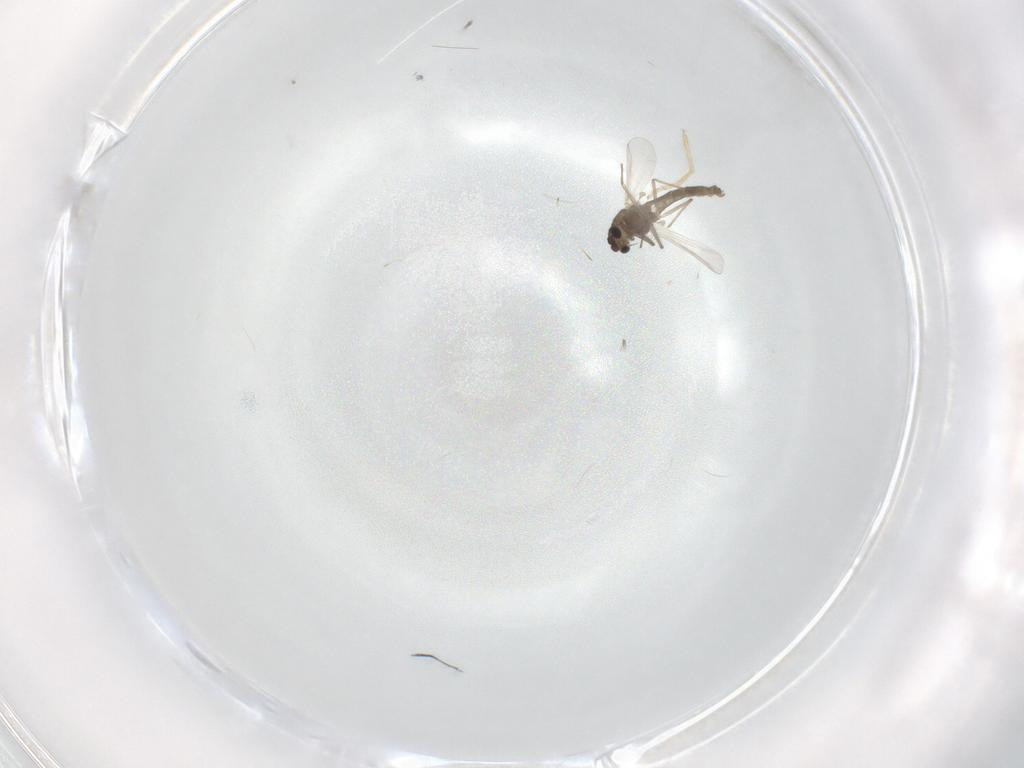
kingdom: Animalia
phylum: Arthropoda
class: Insecta
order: Diptera
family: Chironomidae
